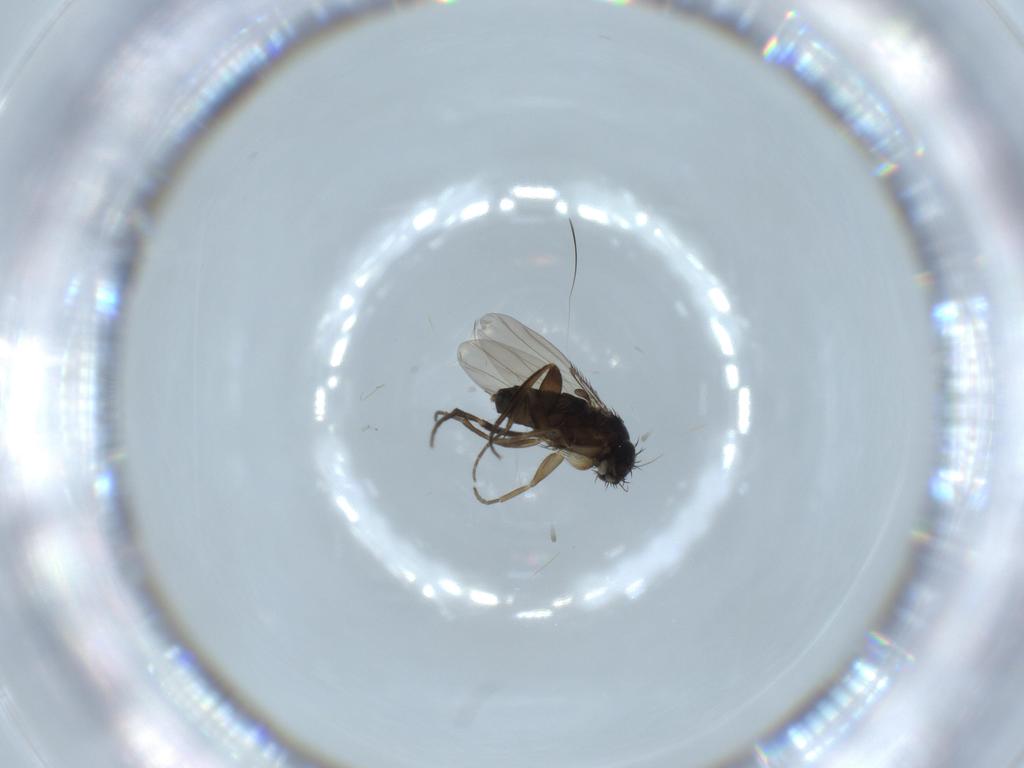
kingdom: Animalia
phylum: Arthropoda
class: Insecta
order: Diptera
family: Phoridae
